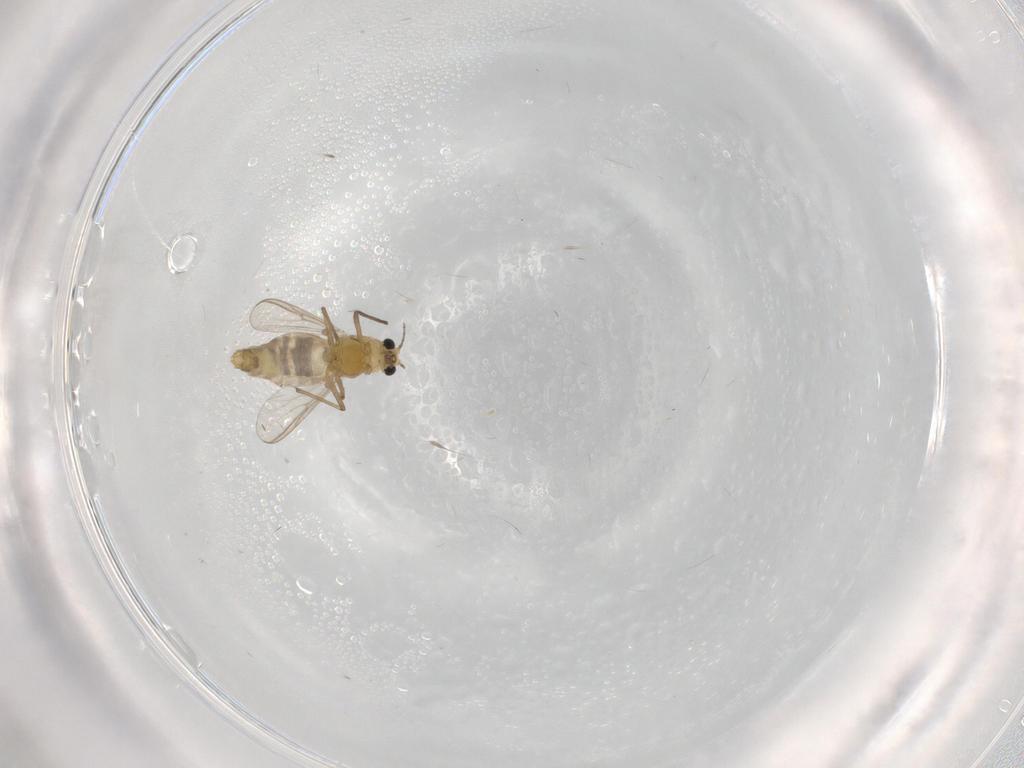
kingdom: Animalia
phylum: Arthropoda
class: Insecta
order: Diptera
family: Chironomidae
